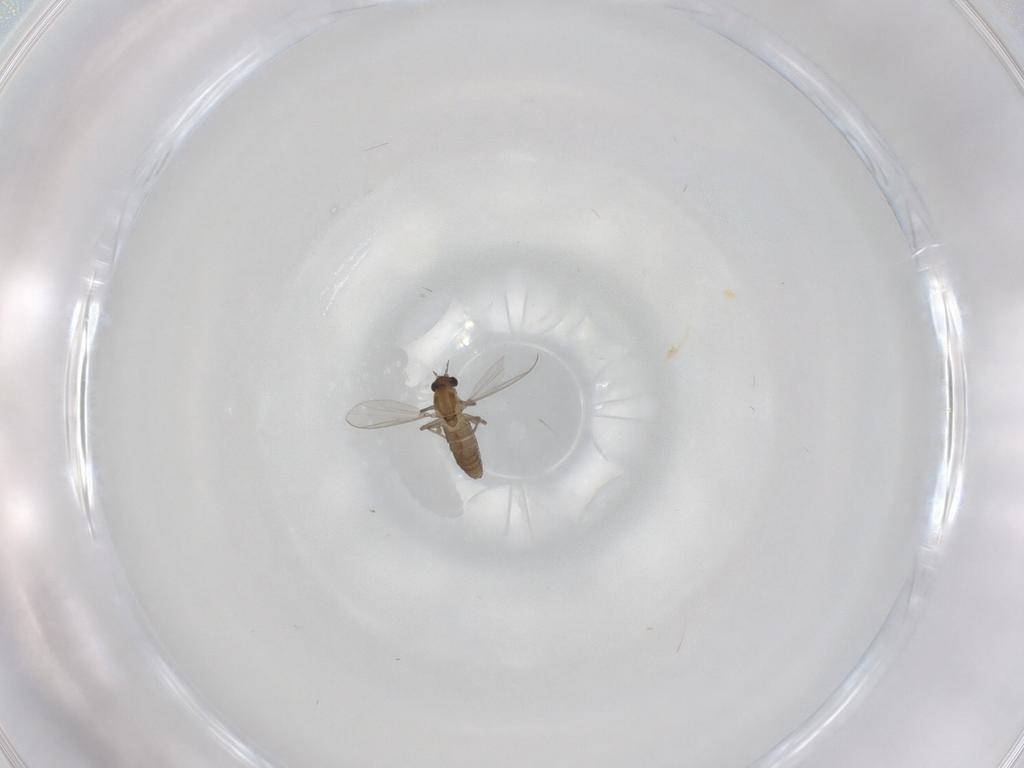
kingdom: Animalia
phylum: Arthropoda
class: Insecta
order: Diptera
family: Chironomidae
